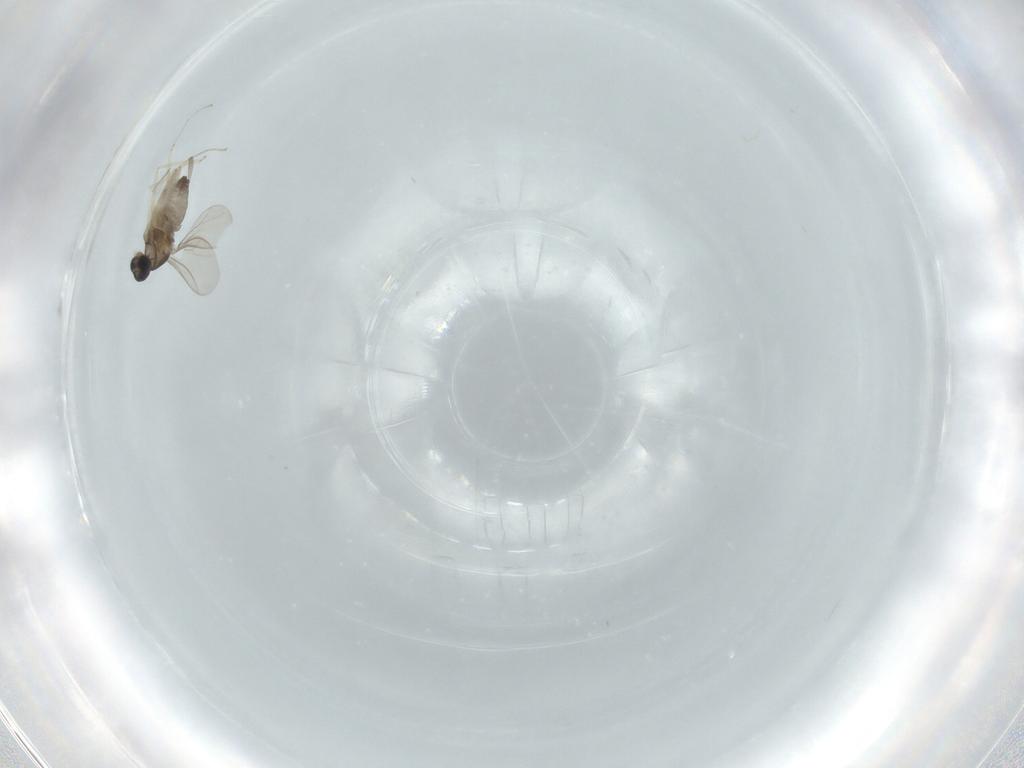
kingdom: Animalia
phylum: Arthropoda
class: Insecta
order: Diptera
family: Cecidomyiidae
